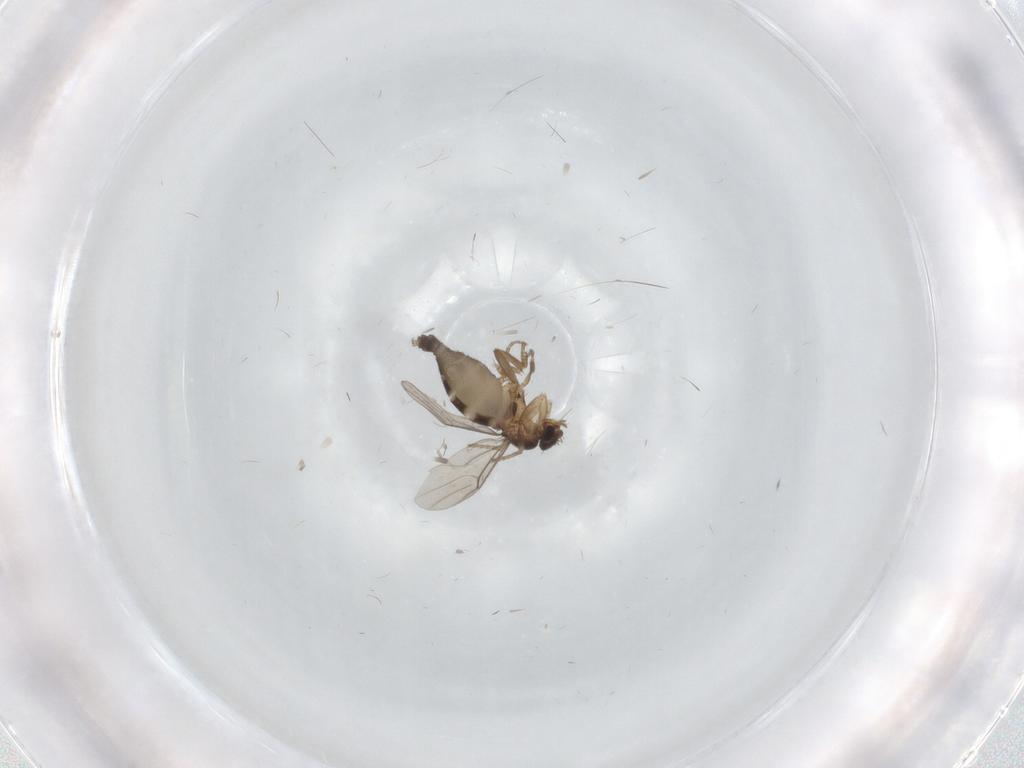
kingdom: Animalia
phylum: Arthropoda
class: Insecta
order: Diptera
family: Phoridae
